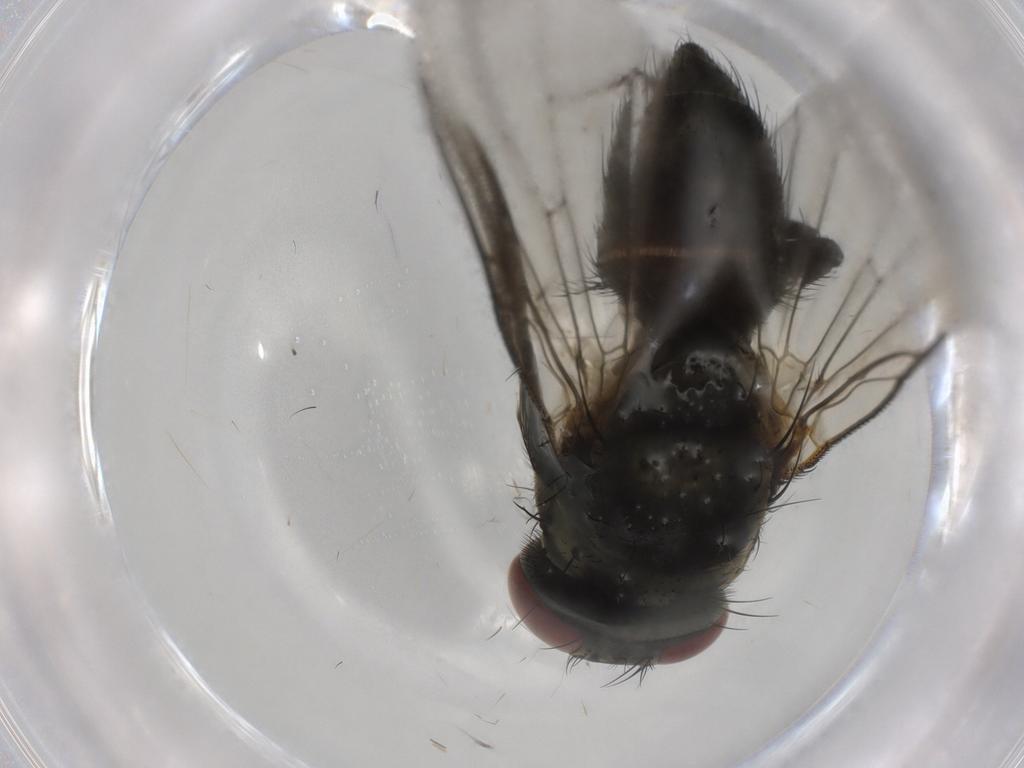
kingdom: Animalia
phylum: Arthropoda
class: Insecta
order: Diptera
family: Muscidae
